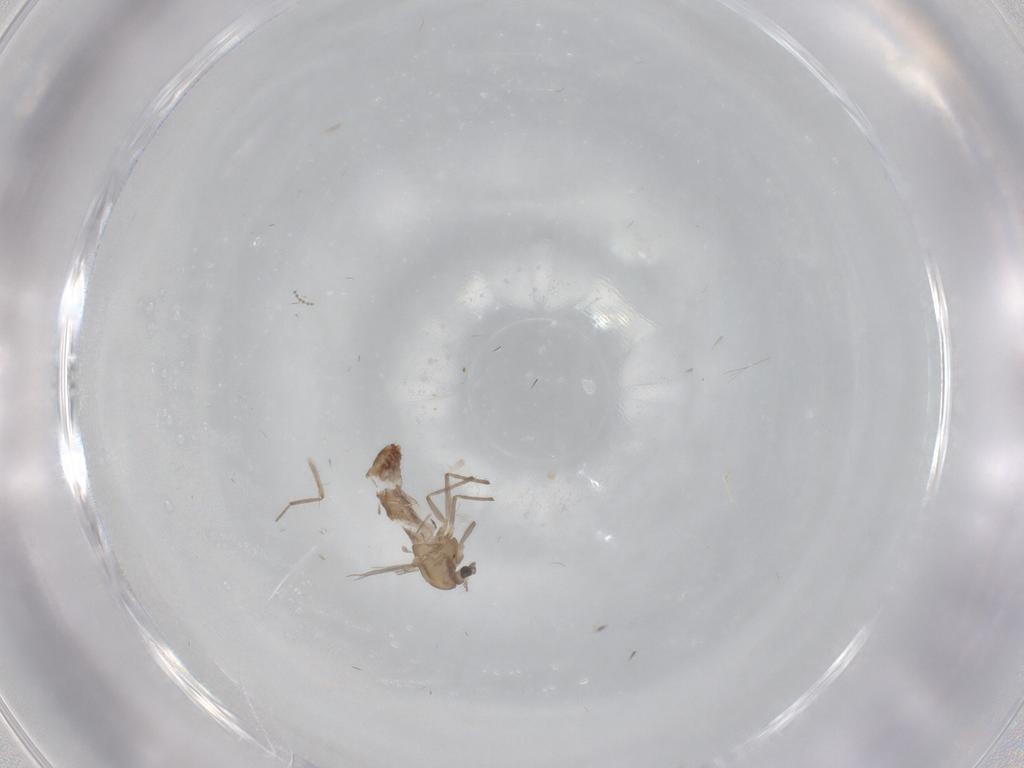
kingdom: Animalia
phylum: Arthropoda
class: Insecta
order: Diptera
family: Chironomidae
